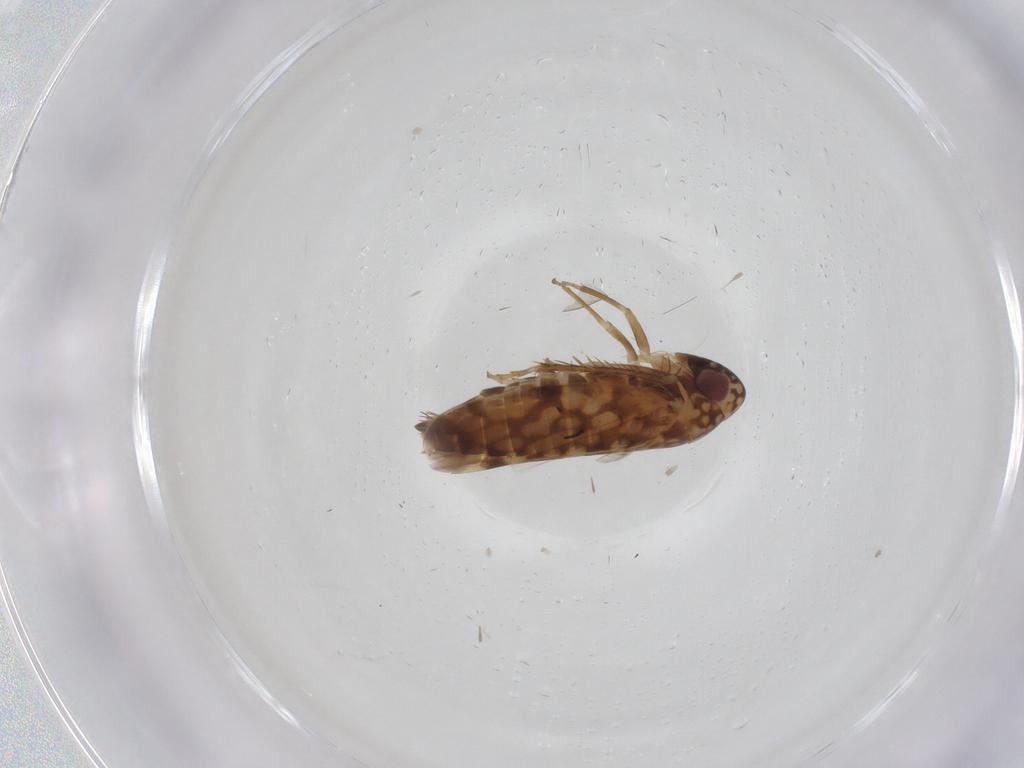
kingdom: Animalia
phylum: Arthropoda
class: Insecta
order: Hemiptera
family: Cicadellidae
